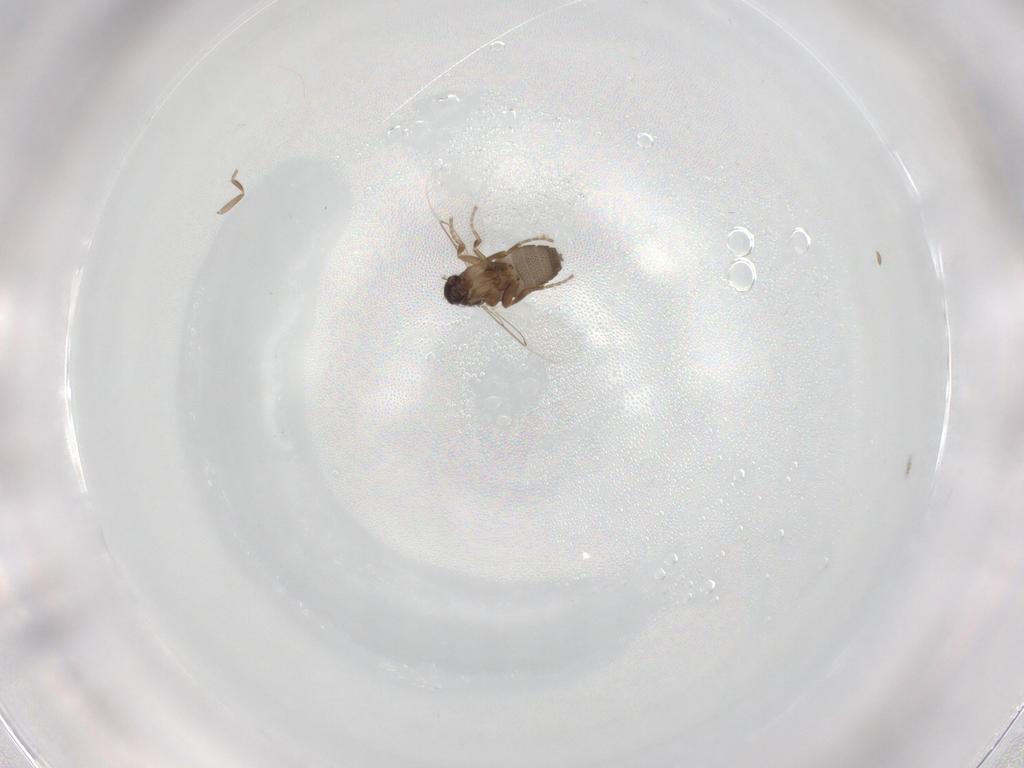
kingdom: Animalia
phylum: Arthropoda
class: Insecta
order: Diptera
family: Phoridae
